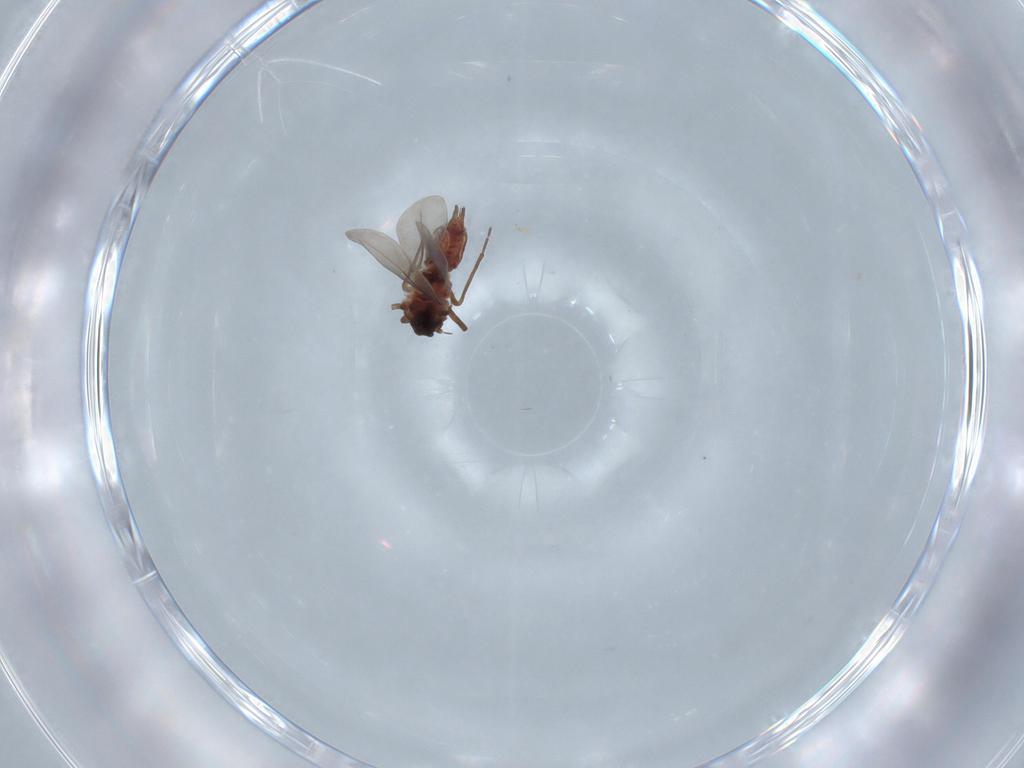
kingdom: Animalia
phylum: Arthropoda
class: Insecta
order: Hemiptera
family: Aleyrodidae
